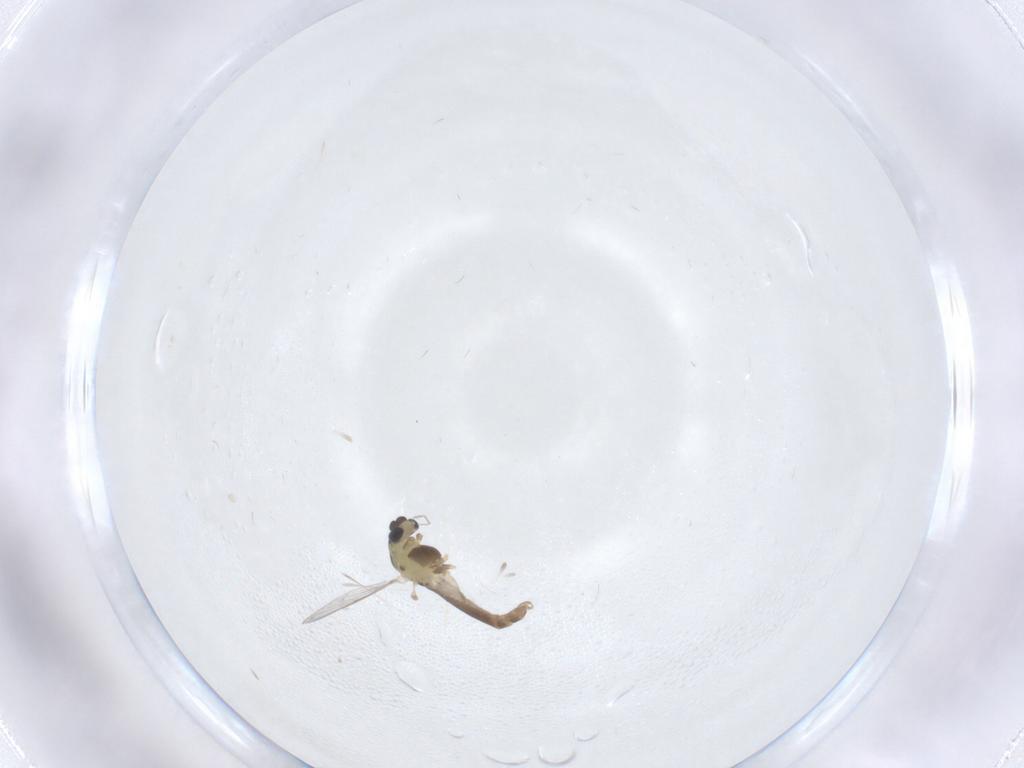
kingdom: Animalia
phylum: Arthropoda
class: Insecta
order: Diptera
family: Chironomidae
